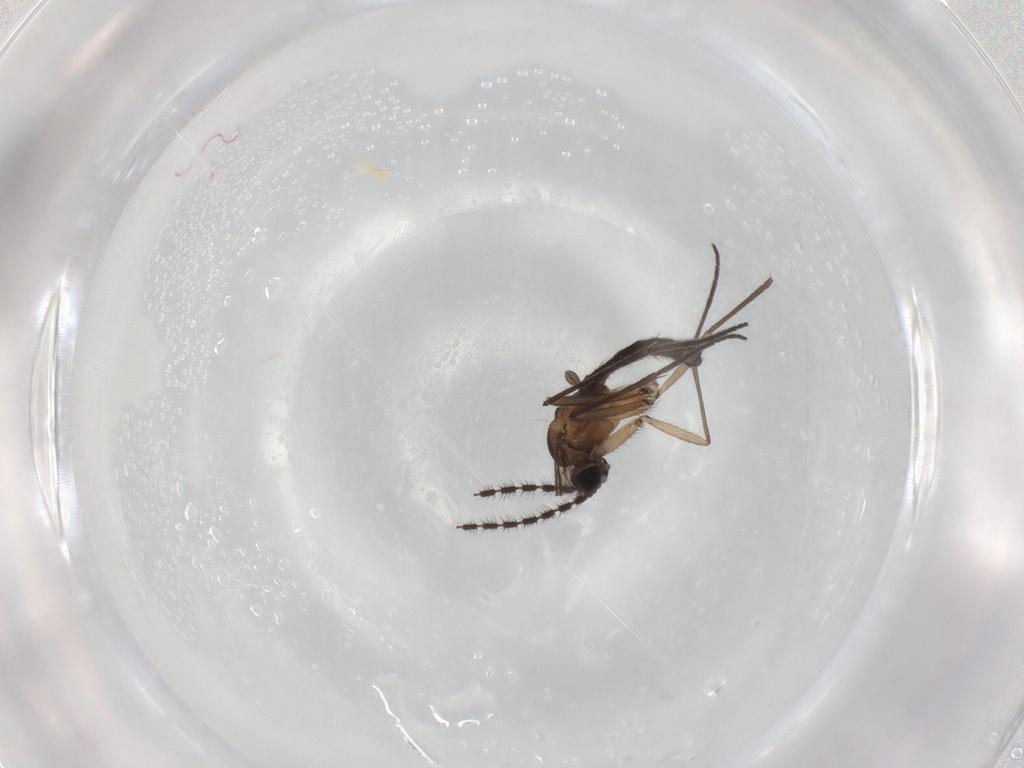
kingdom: Animalia
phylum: Arthropoda
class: Insecta
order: Diptera
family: Sciaridae
